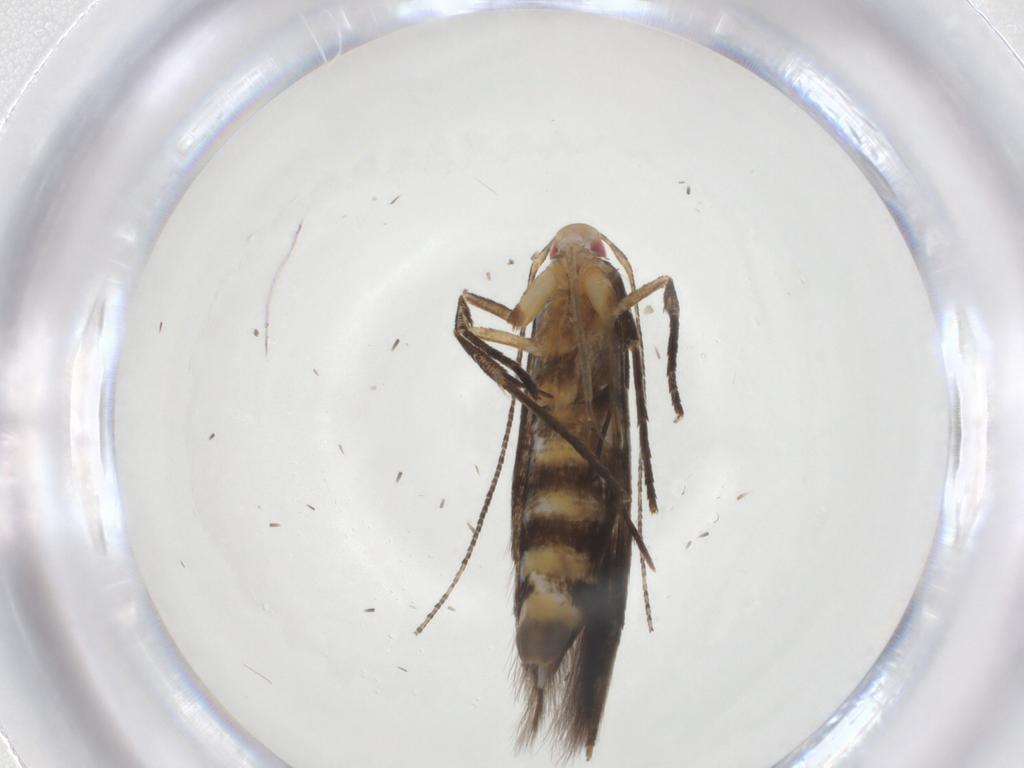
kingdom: Animalia
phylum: Arthropoda
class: Insecta
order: Lepidoptera
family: Cosmopterigidae
